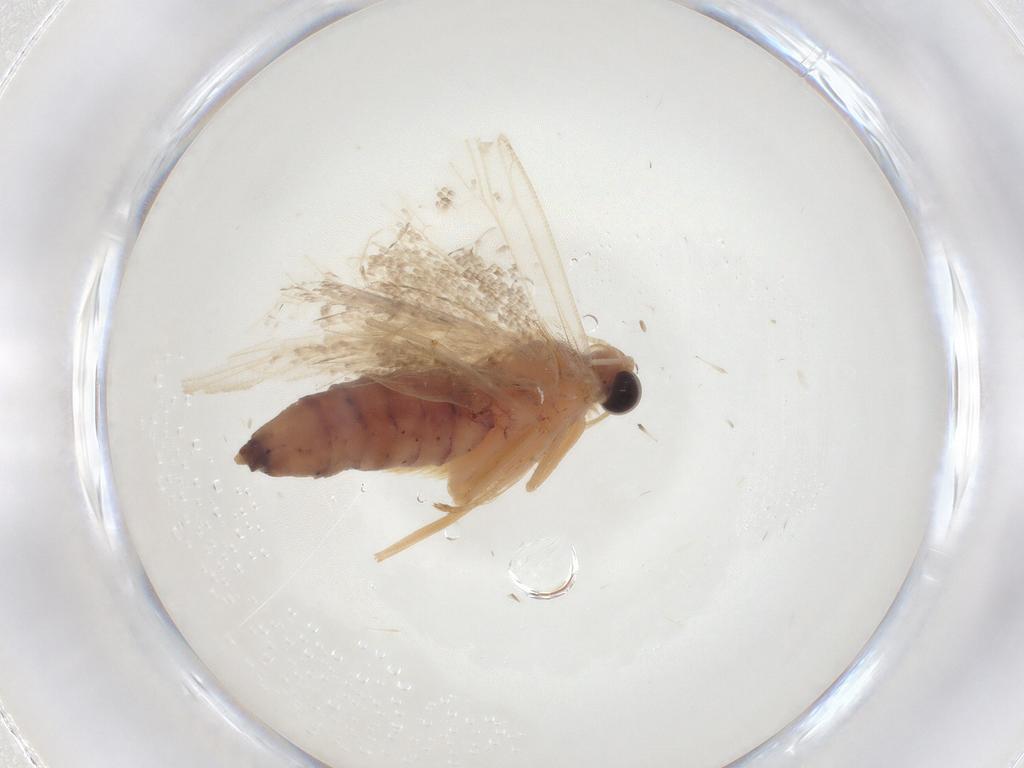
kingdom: Animalia
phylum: Arthropoda
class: Insecta
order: Lepidoptera
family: Crambidae
